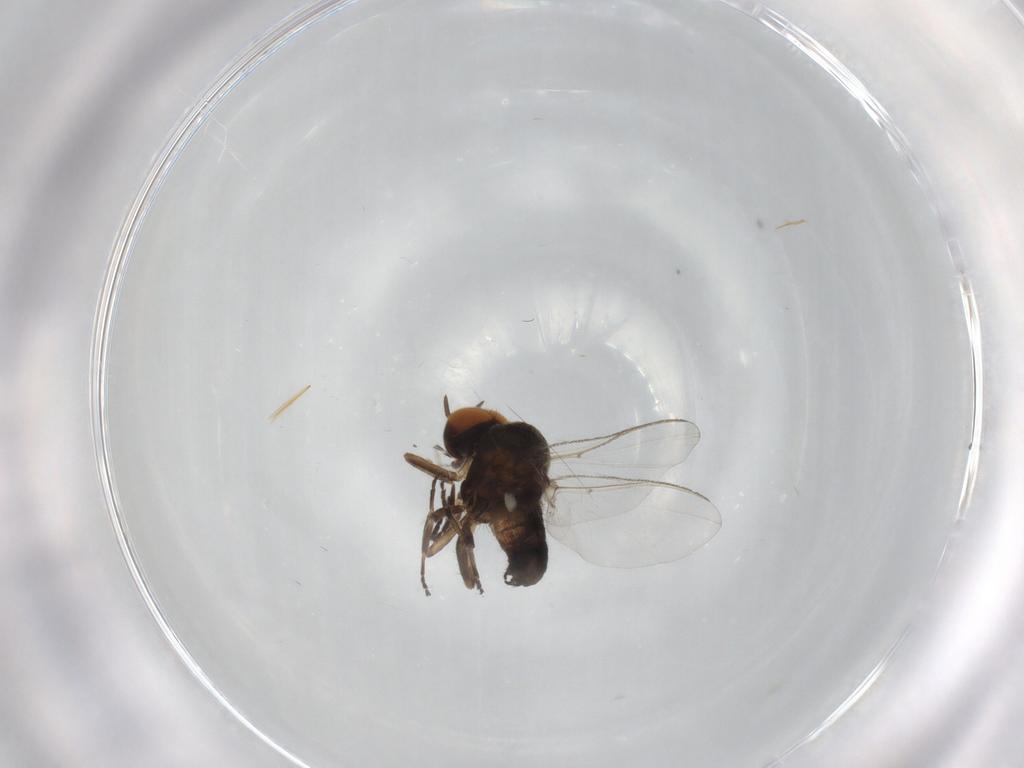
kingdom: Animalia
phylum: Arthropoda
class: Insecta
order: Diptera
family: Simuliidae
